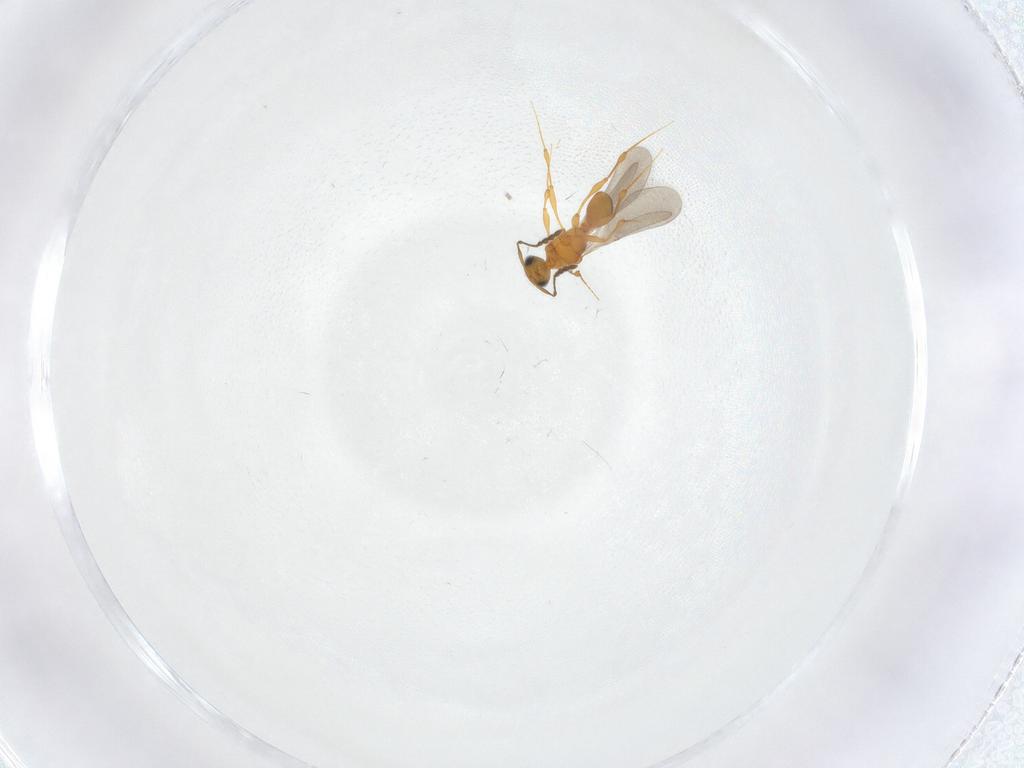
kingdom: Animalia
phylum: Arthropoda
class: Insecta
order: Hymenoptera
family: Platygastridae
